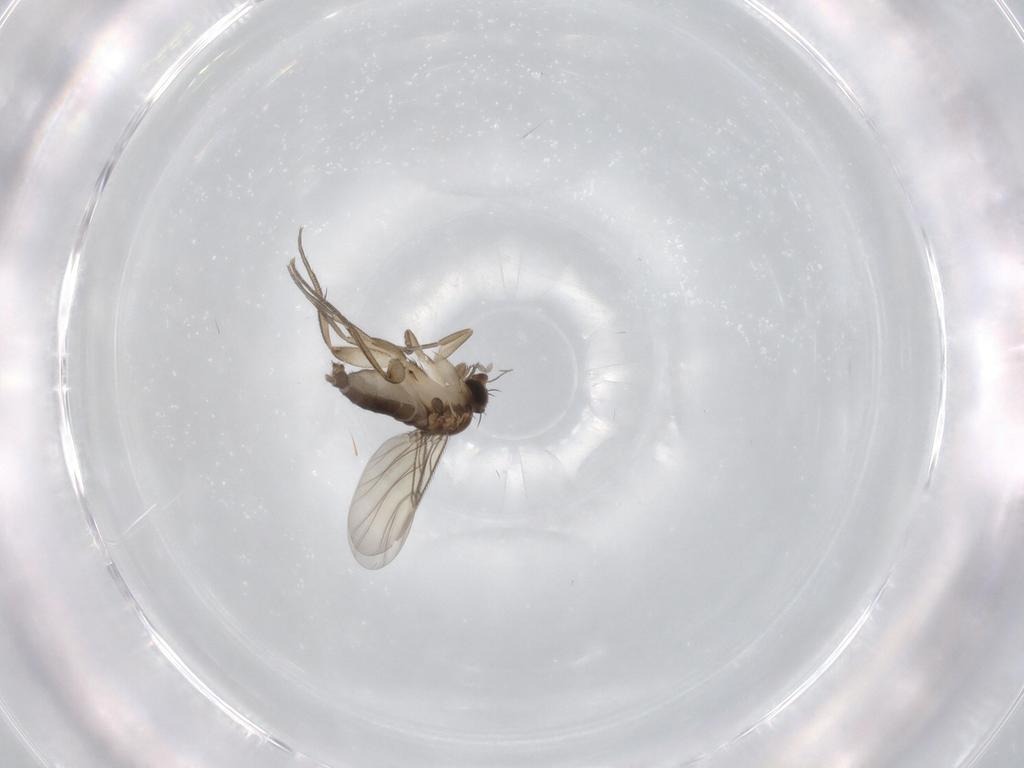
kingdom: Animalia
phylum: Arthropoda
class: Insecta
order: Diptera
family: Phoridae
